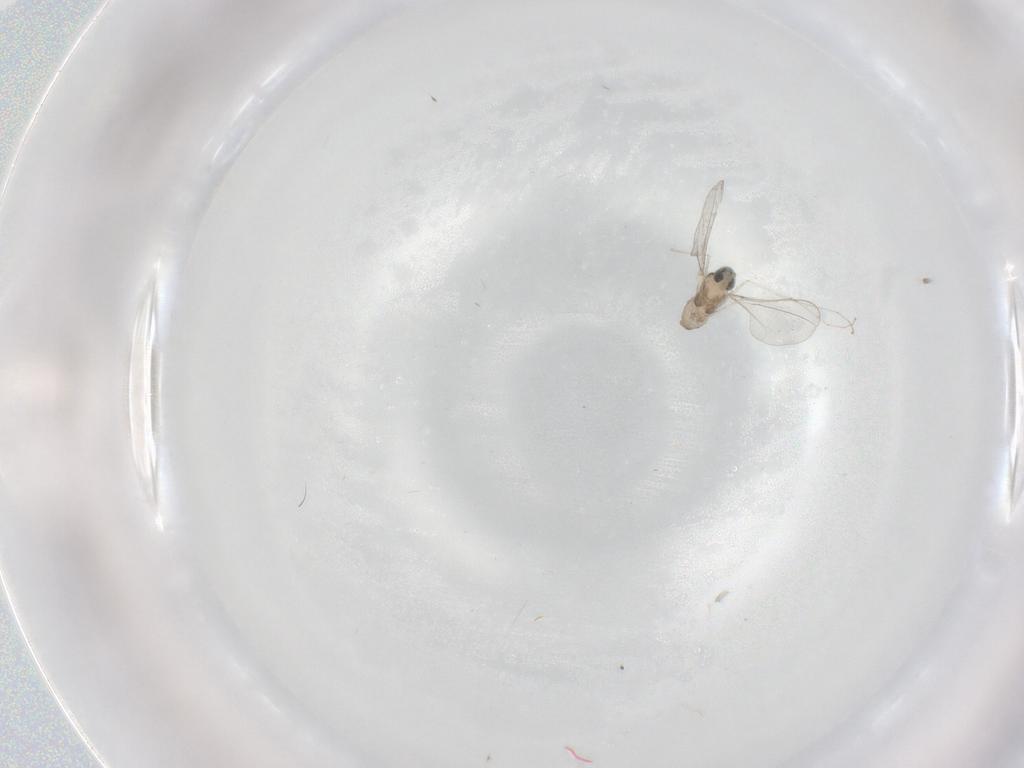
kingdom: Animalia
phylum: Arthropoda
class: Insecta
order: Diptera
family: Cecidomyiidae
